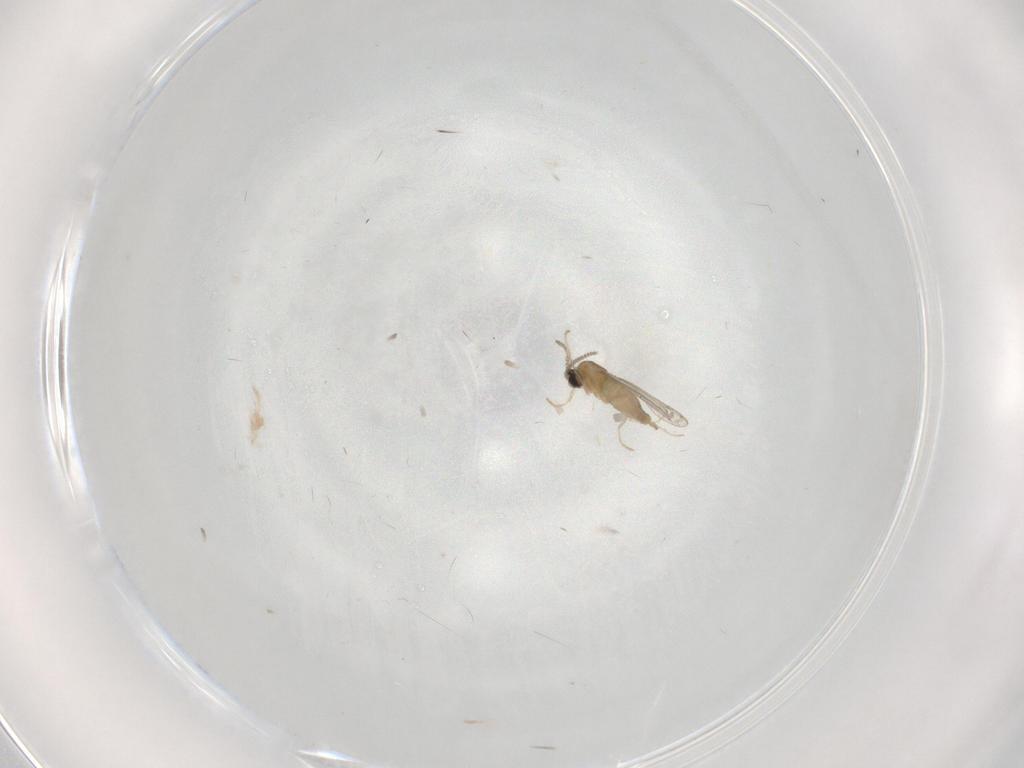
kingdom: Animalia
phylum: Arthropoda
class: Insecta
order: Diptera
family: Cecidomyiidae
